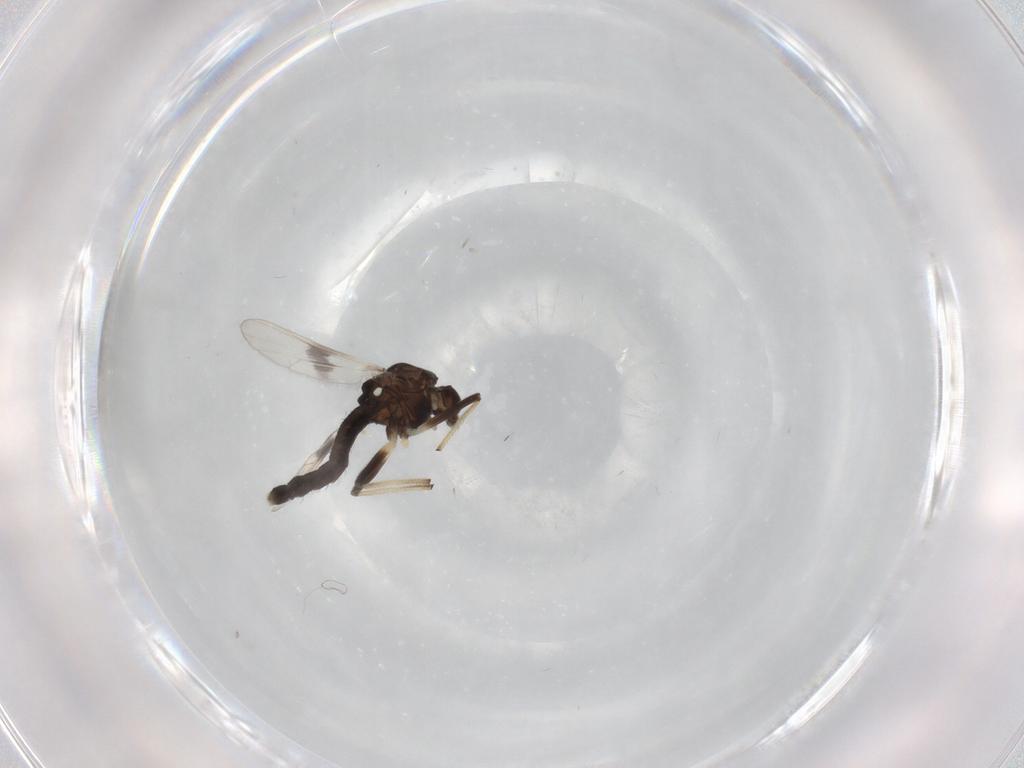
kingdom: Animalia
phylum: Arthropoda
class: Insecta
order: Diptera
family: Chironomidae
